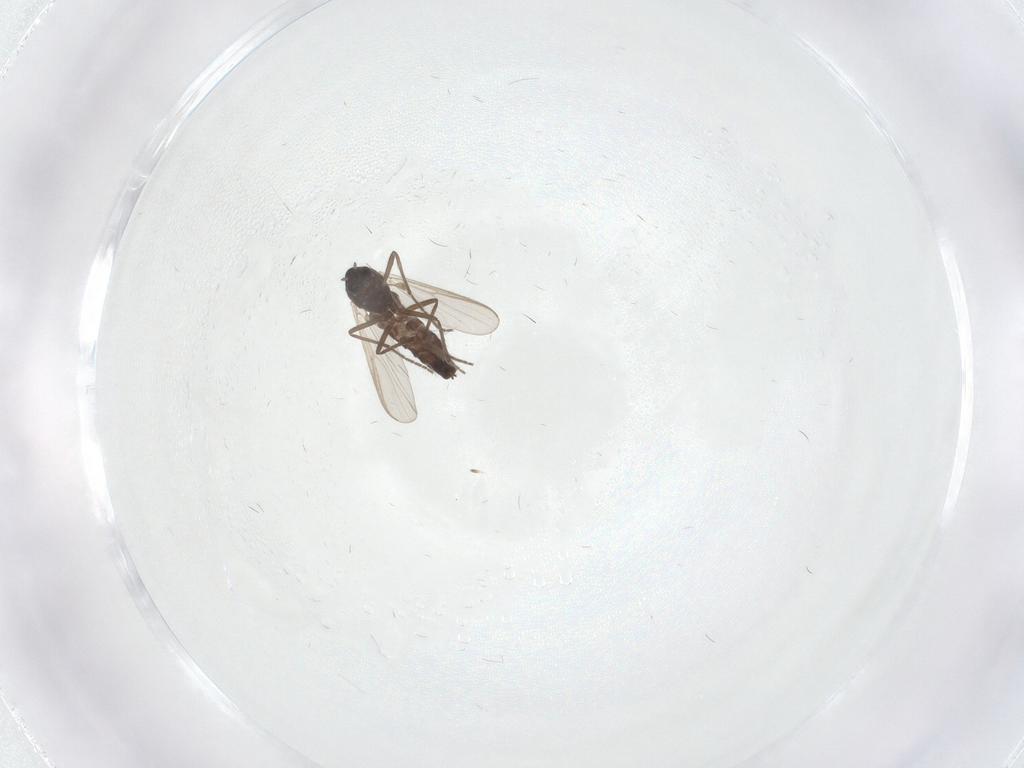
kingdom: Animalia
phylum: Arthropoda
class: Insecta
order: Diptera
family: Chironomidae
